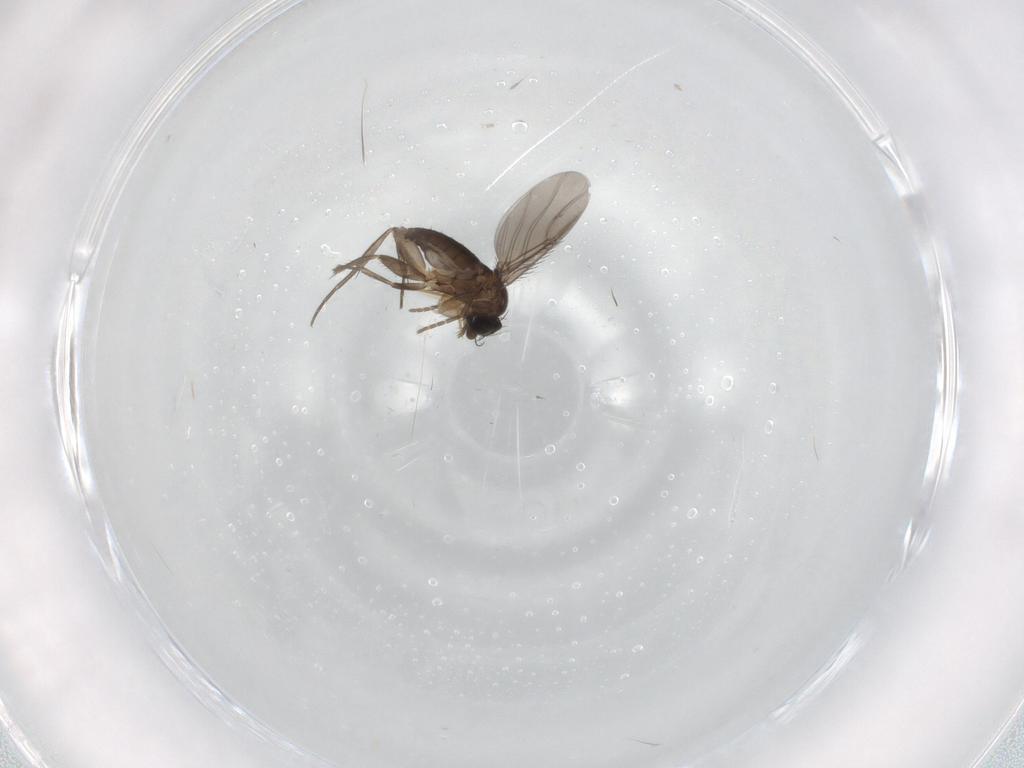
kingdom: Animalia
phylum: Arthropoda
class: Insecta
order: Diptera
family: Phoridae
